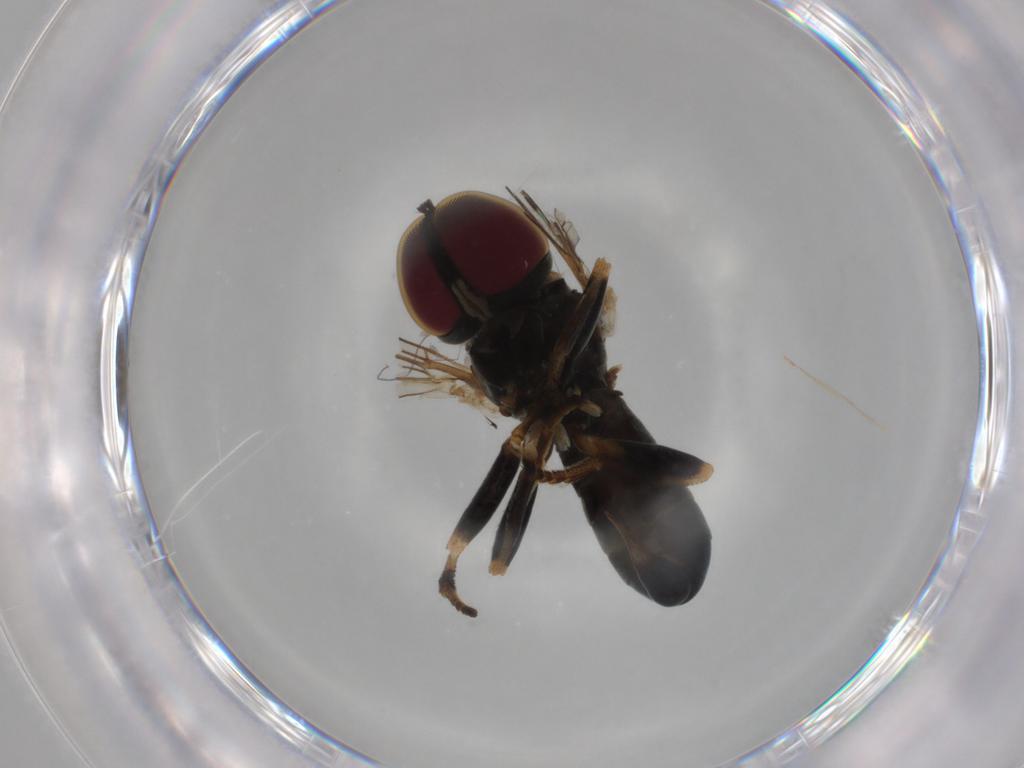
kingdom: Animalia
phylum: Arthropoda
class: Insecta
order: Diptera
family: Pipunculidae
